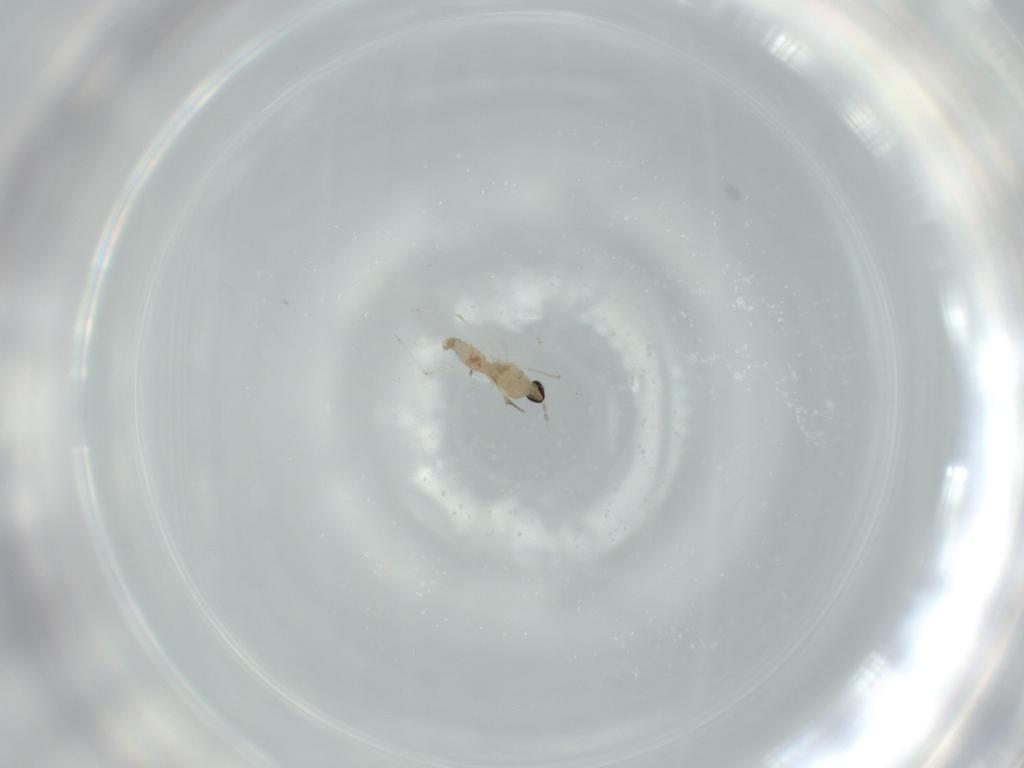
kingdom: Animalia
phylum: Arthropoda
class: Insecta
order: Diptera
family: Cecidomyiidae
